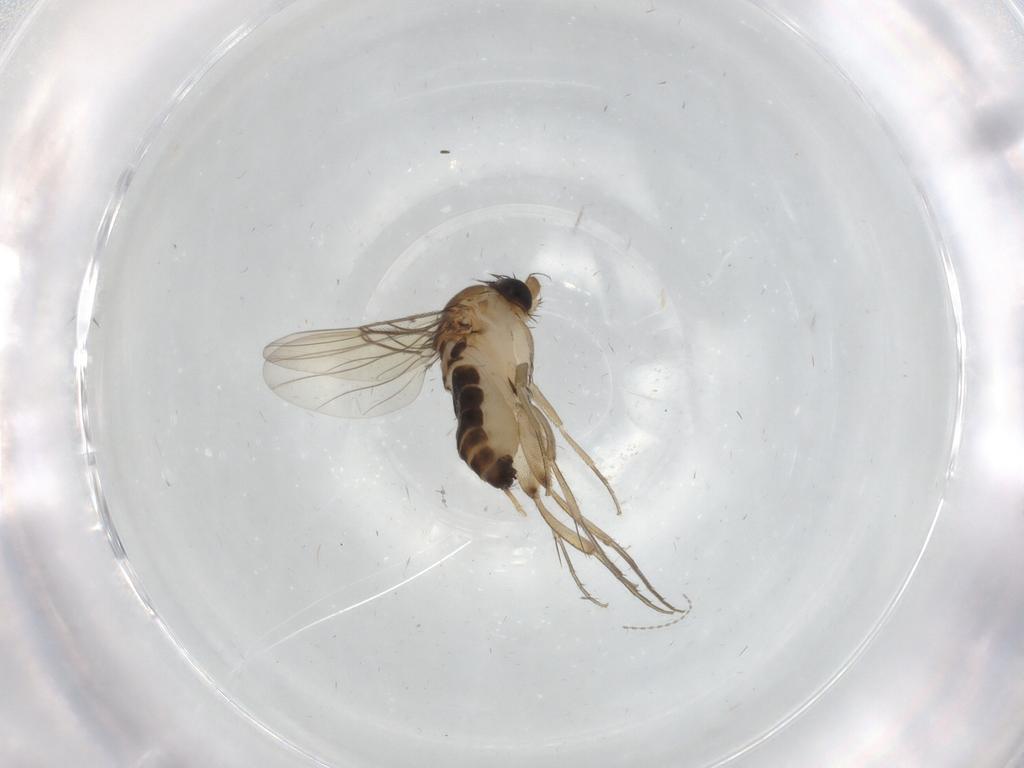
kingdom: Animalia
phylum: Arthropoda
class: Insecta
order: Diptera
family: Phoridae
